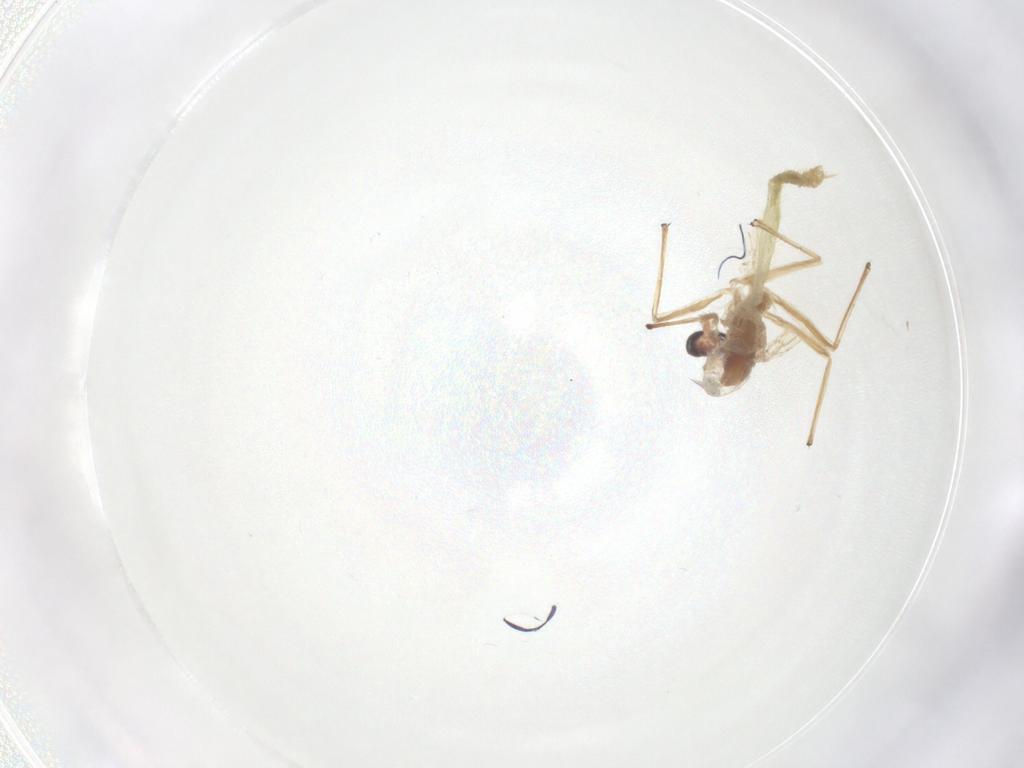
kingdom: Animalia
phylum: Arthropoda
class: Insecta
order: Diptera
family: Chironomidae
